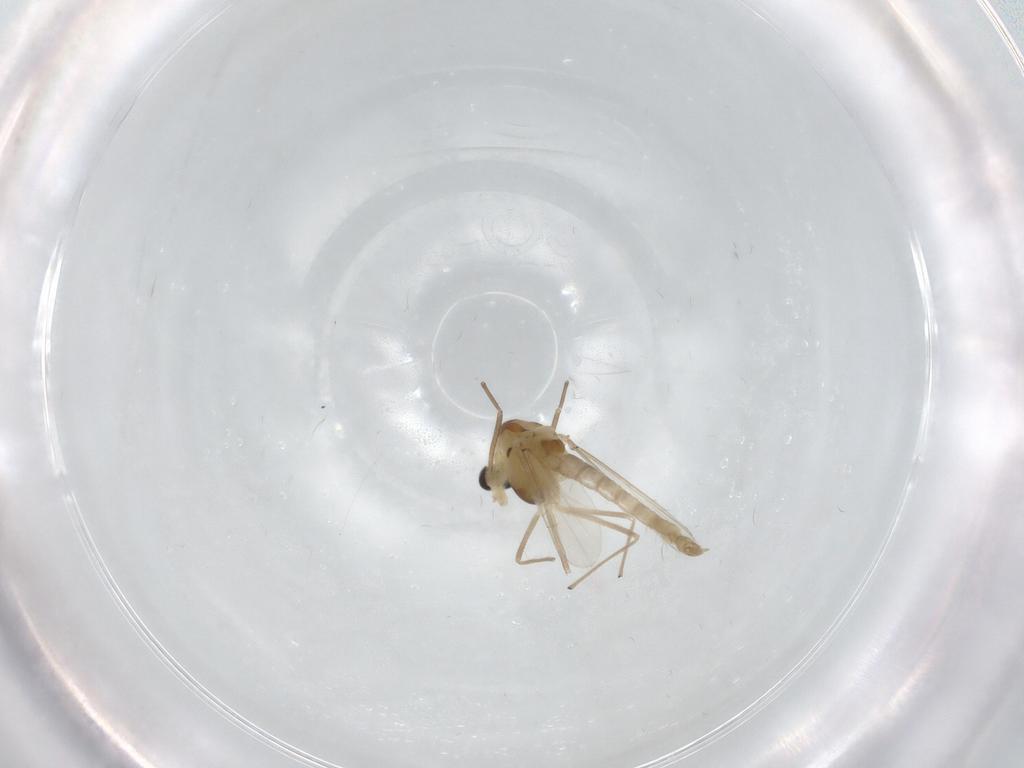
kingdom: Animalia
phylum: Arthropoda
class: Insecta
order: Diptera
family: Chironomidae
